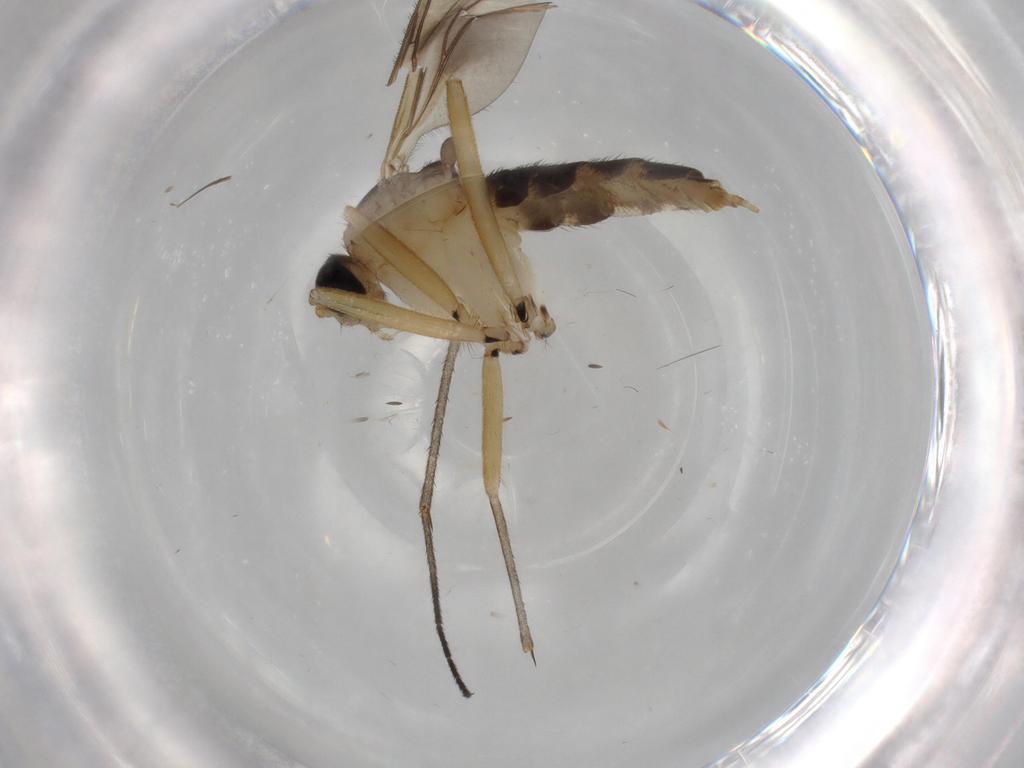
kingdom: Animalia
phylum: Arthropoda
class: Insecta
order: Diptera
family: Sciaridae
